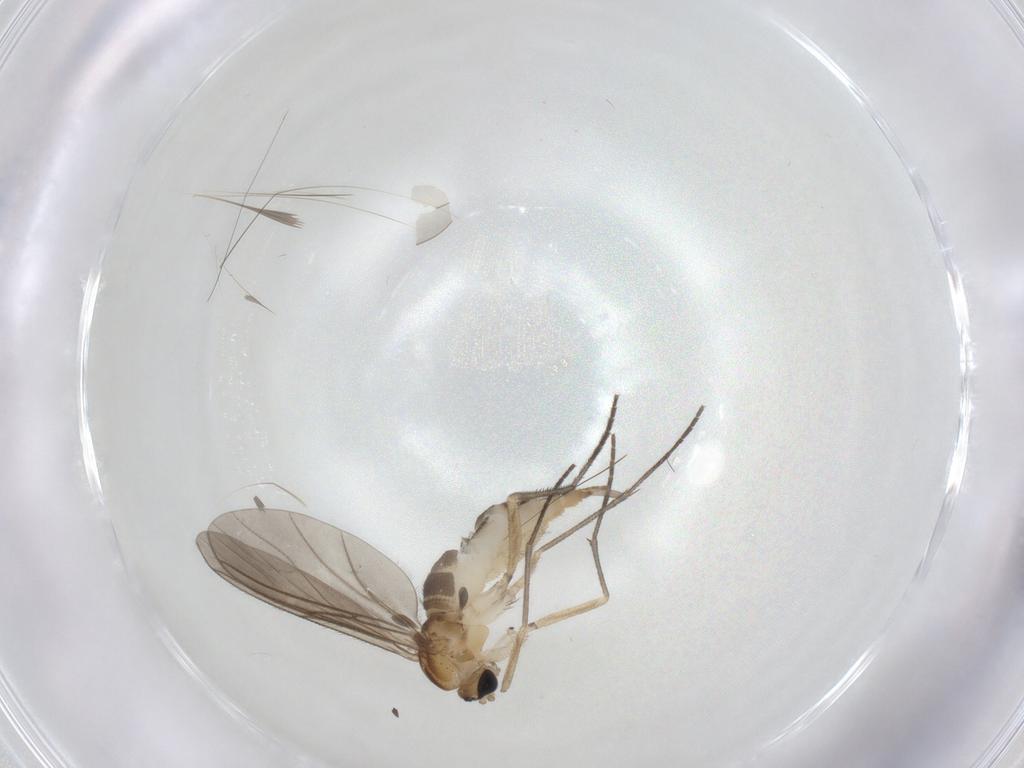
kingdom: Animalia
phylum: Arthropoda
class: Insecta
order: Diptera
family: Sciaridae
